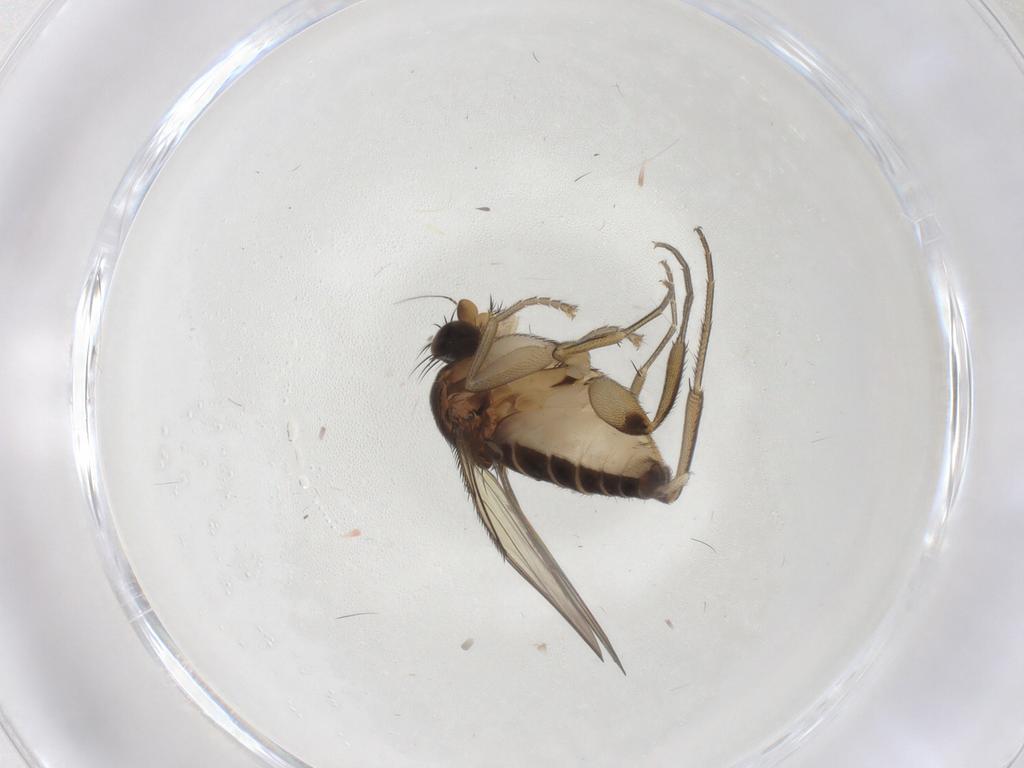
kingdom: Animalia
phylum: Arthropoda
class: Insecta
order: Diptera
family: Phoridae
